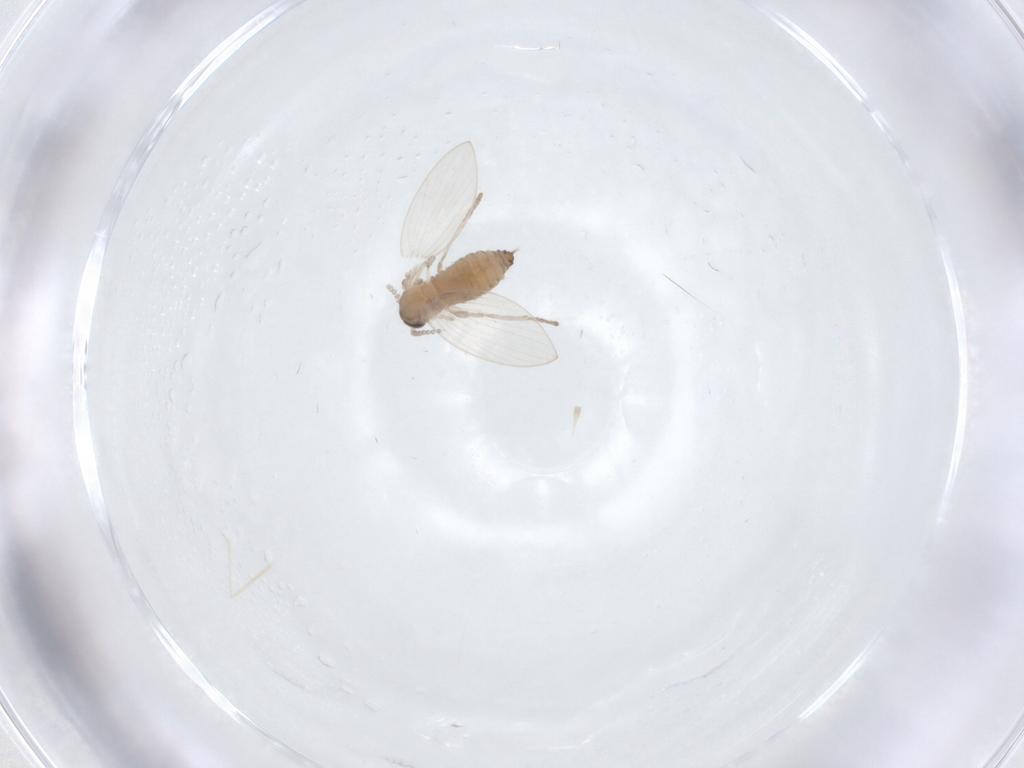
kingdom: Animalia
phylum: Arthropoda
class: Insecta
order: Diptera
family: Psychodidae
